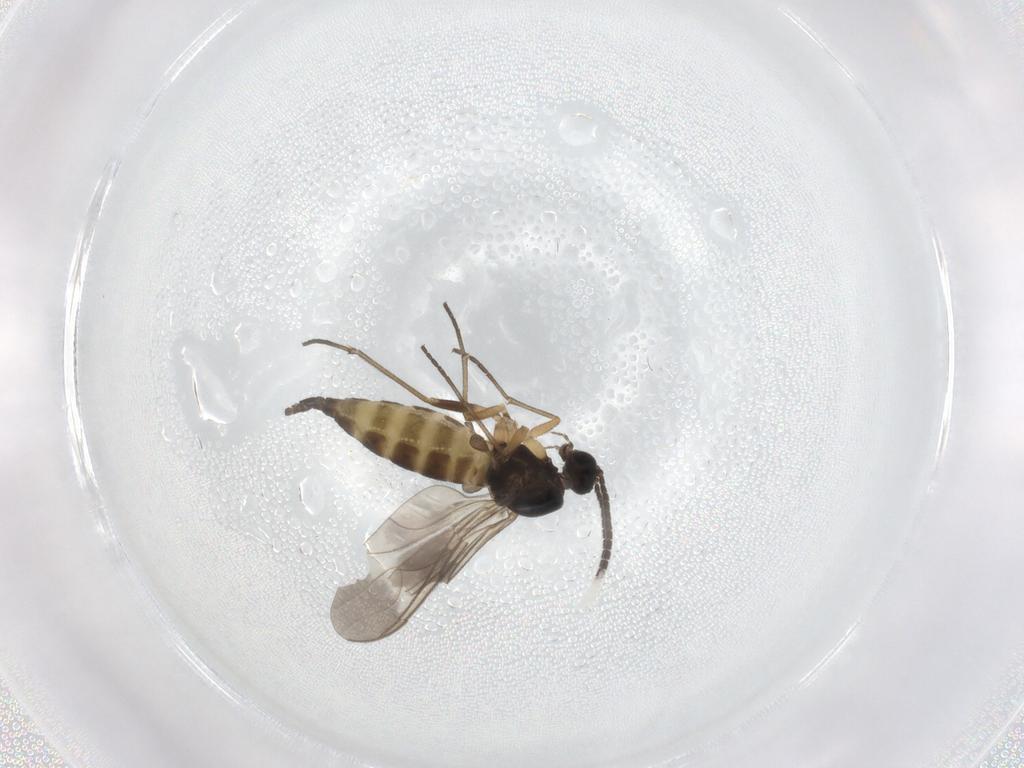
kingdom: Animalia
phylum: Arthropoda
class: Insecta
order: Diptera
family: Sciaridae
